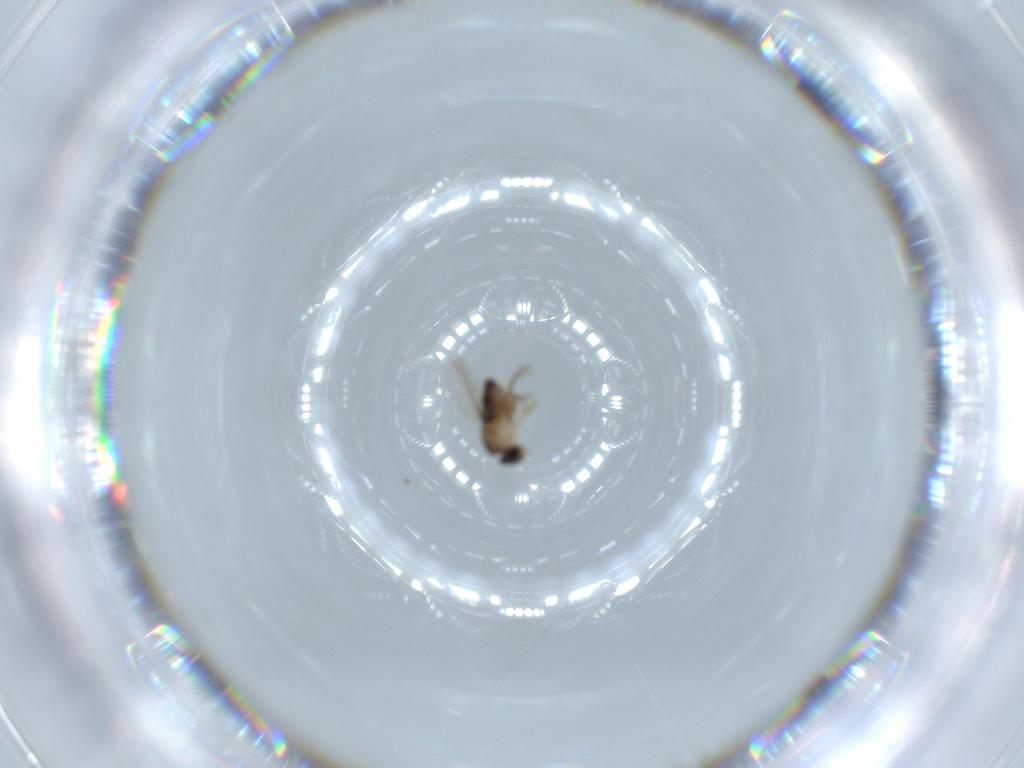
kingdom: Animalia
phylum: Arthropoda
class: Insecta
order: Diptera
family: Phoridae
